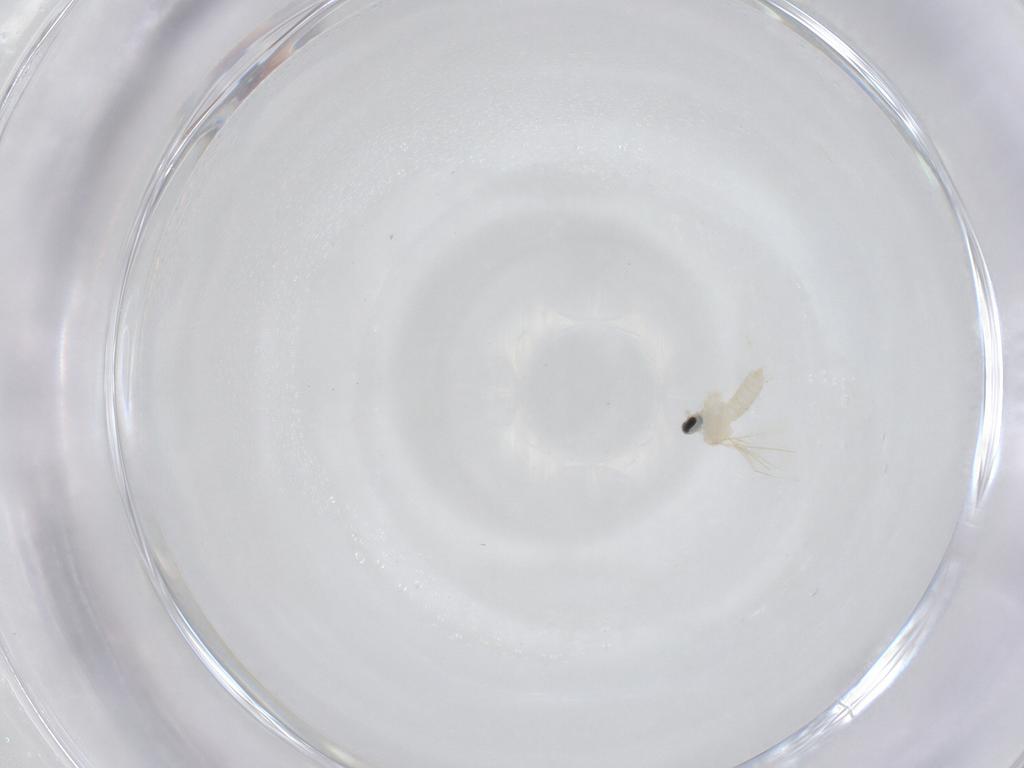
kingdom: Animalia
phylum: Arthropoda
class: Insecta
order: Diptera
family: Cecidomyiidae
